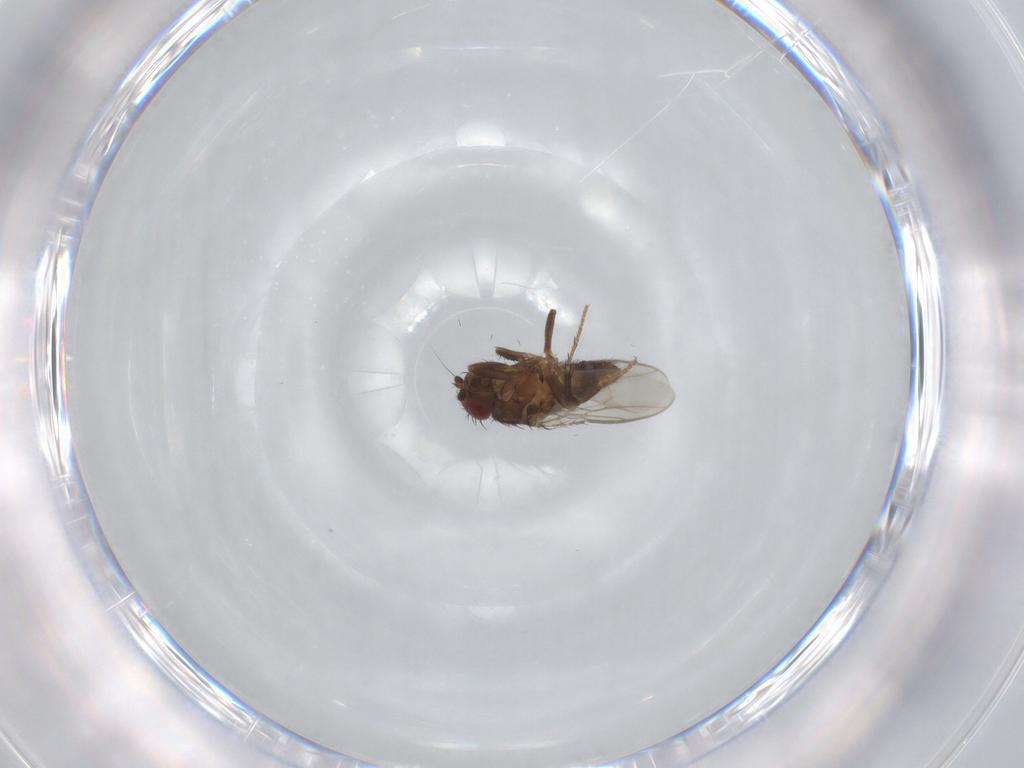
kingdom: Animalia
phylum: Arthropoda
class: Insecta
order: Diptera
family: Sphaeroceridae
